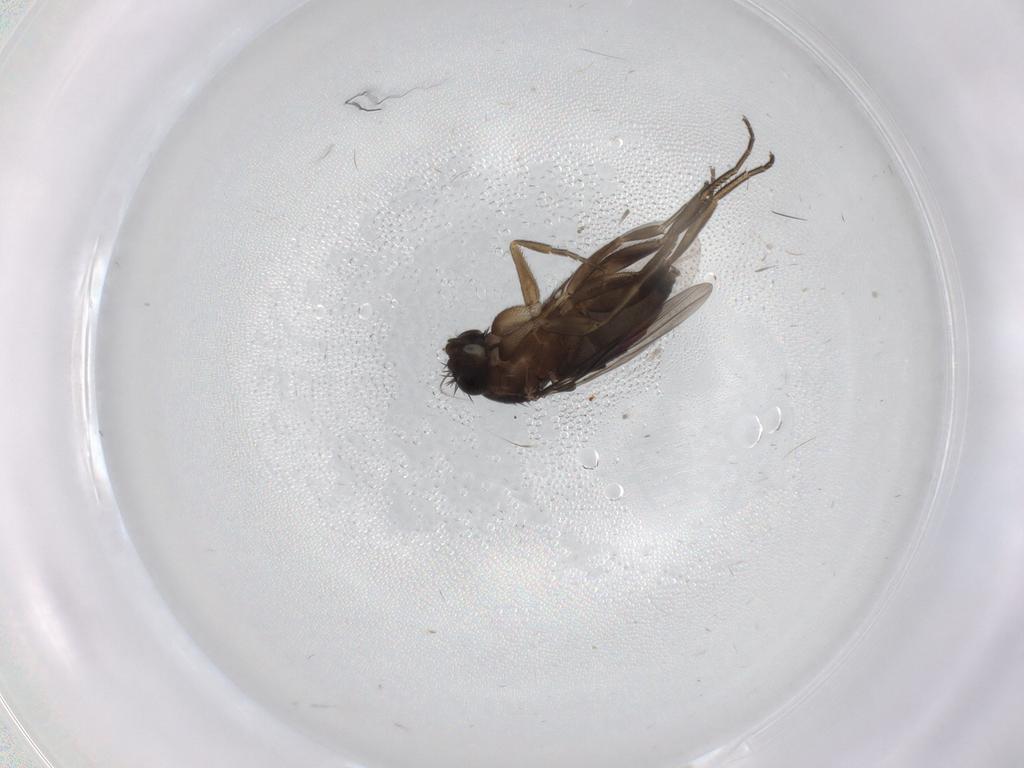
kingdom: Animalia
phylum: Arthropoda
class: Insecta
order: Diptera
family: Phoridae
